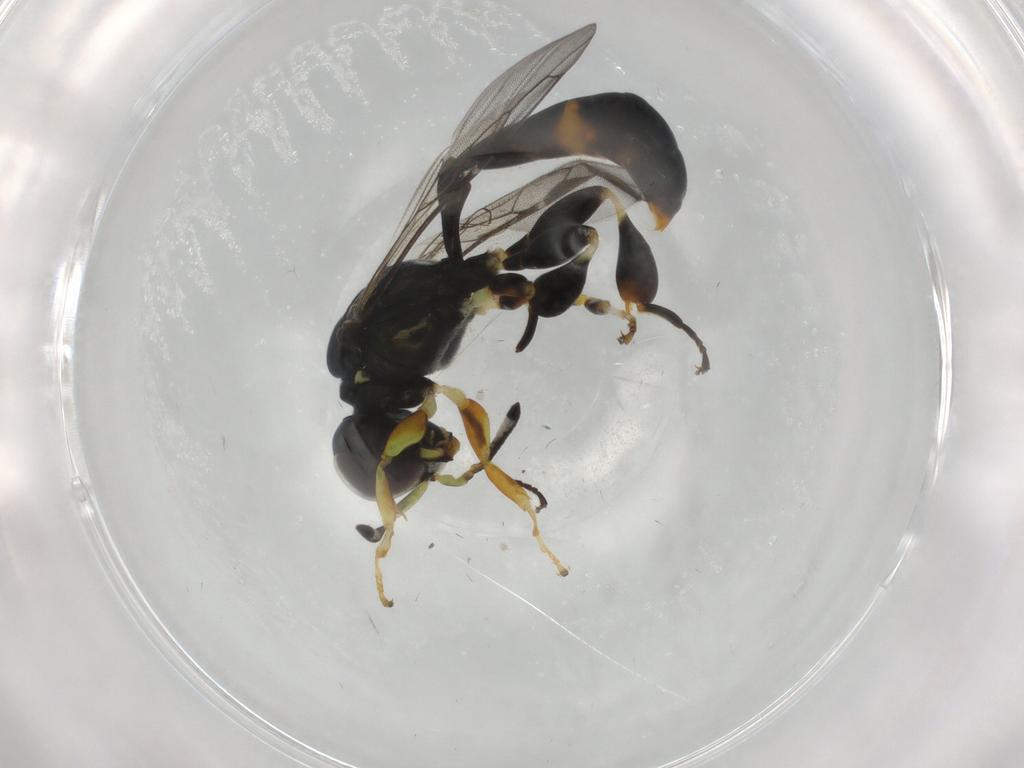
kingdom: Animalia
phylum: Arthropoda
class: Insecta
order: Hymenoptera
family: Crabronidae
